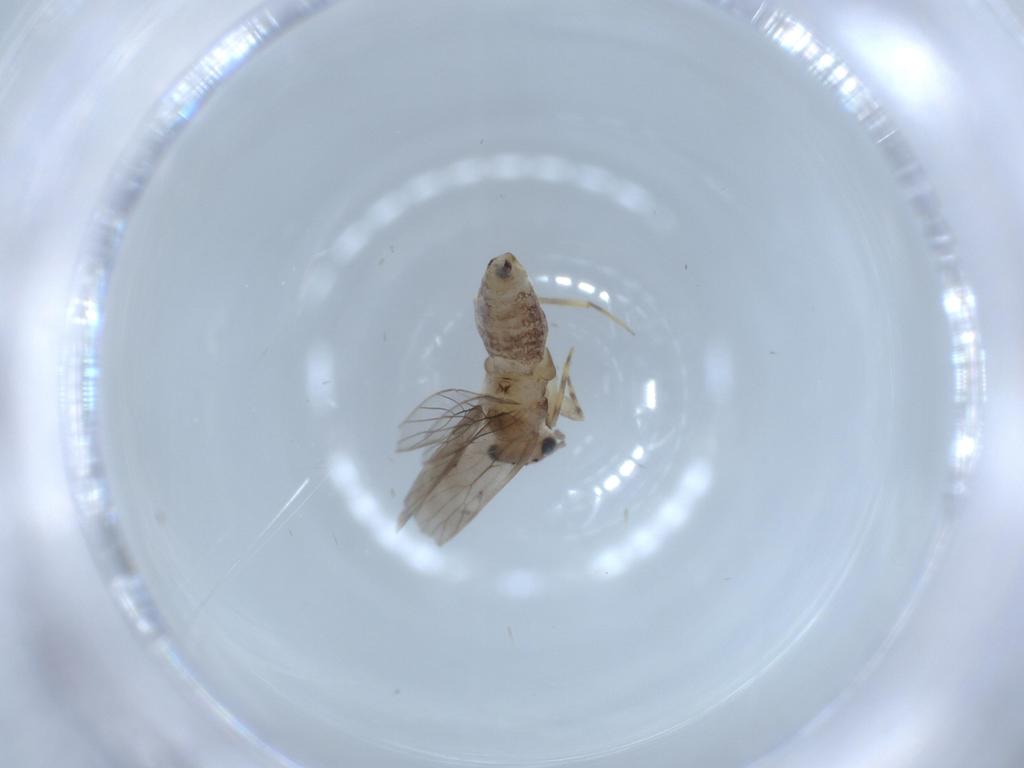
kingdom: Animalia
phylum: Arthropoda
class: Insecta
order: Psocodea
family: Lepidopsocidae
